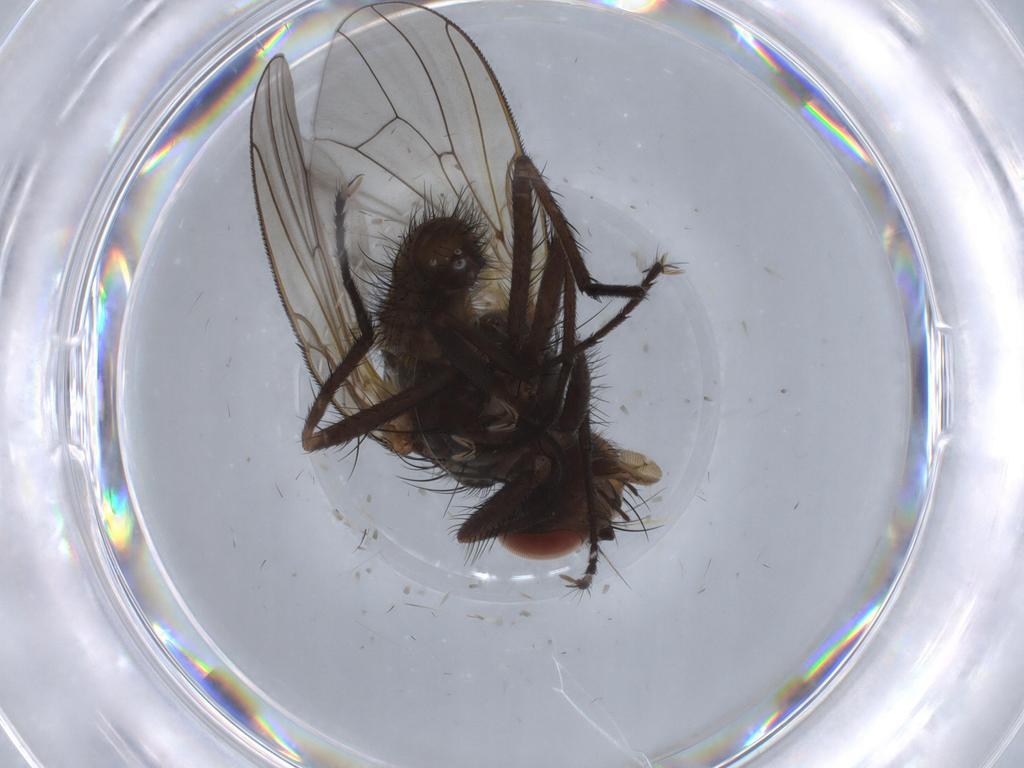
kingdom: Animalia
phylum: Arthropoda
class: Insecta
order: Diptera
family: Anthomyiidae
